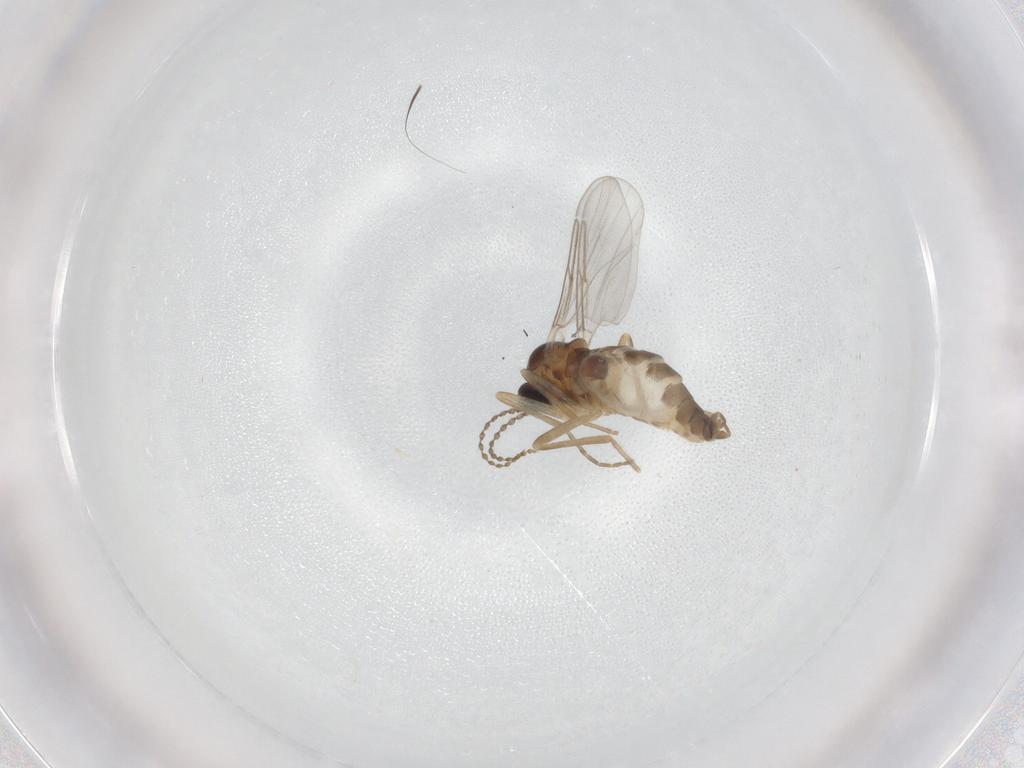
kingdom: Animalia
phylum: Arthropoda
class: Insecta
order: Diptera
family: Cecidomyiidae
